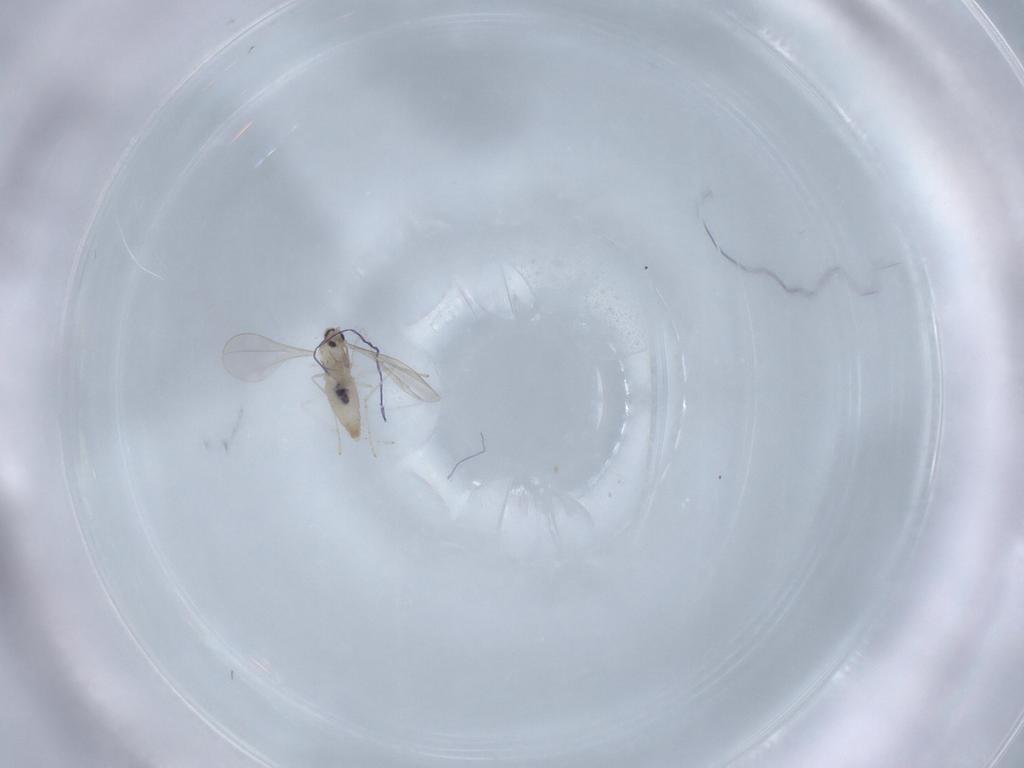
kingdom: Animalia
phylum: Arthropoda
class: Insecta
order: Diptera
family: Cecidomyiidae
